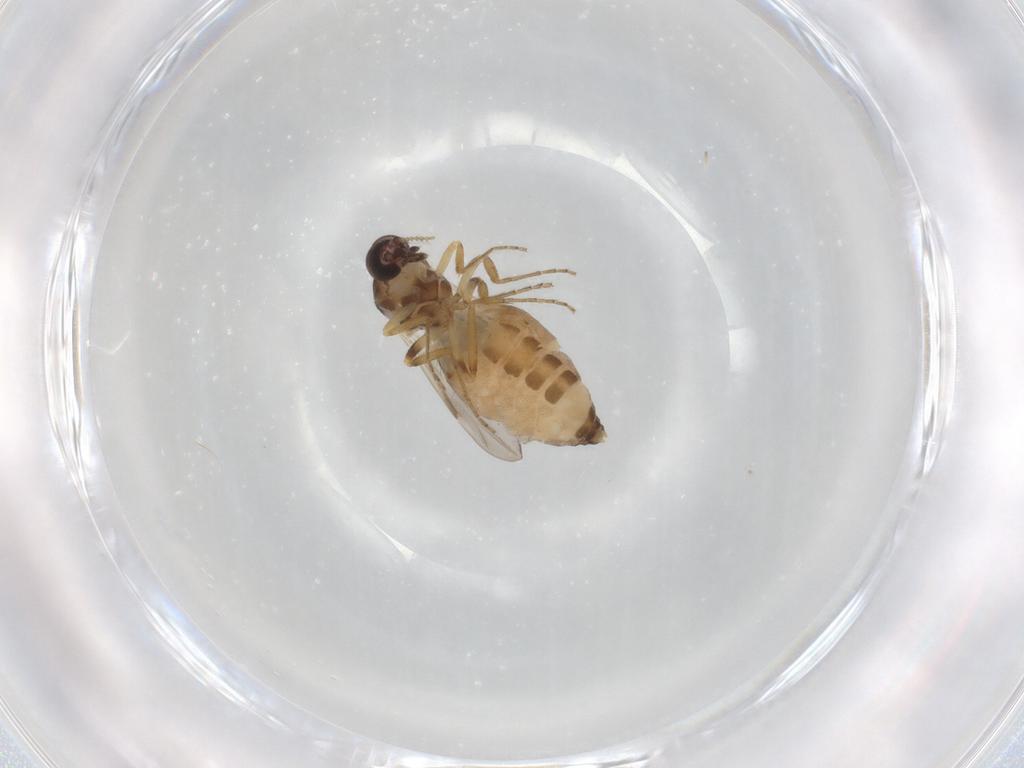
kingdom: Animalia
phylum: Arthropoda
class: Insecta
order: Diptera
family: Ceratopogonidae
